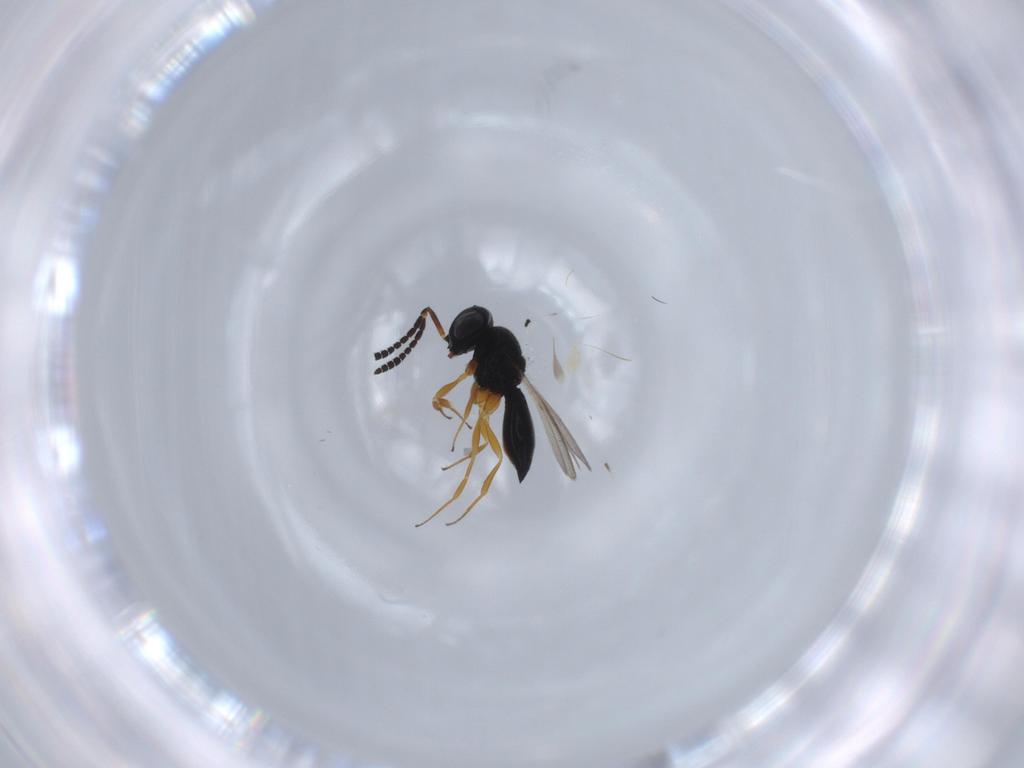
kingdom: Animalia
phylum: Arthropoda
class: Insecta
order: Hymenoptera
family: Scelionidae
